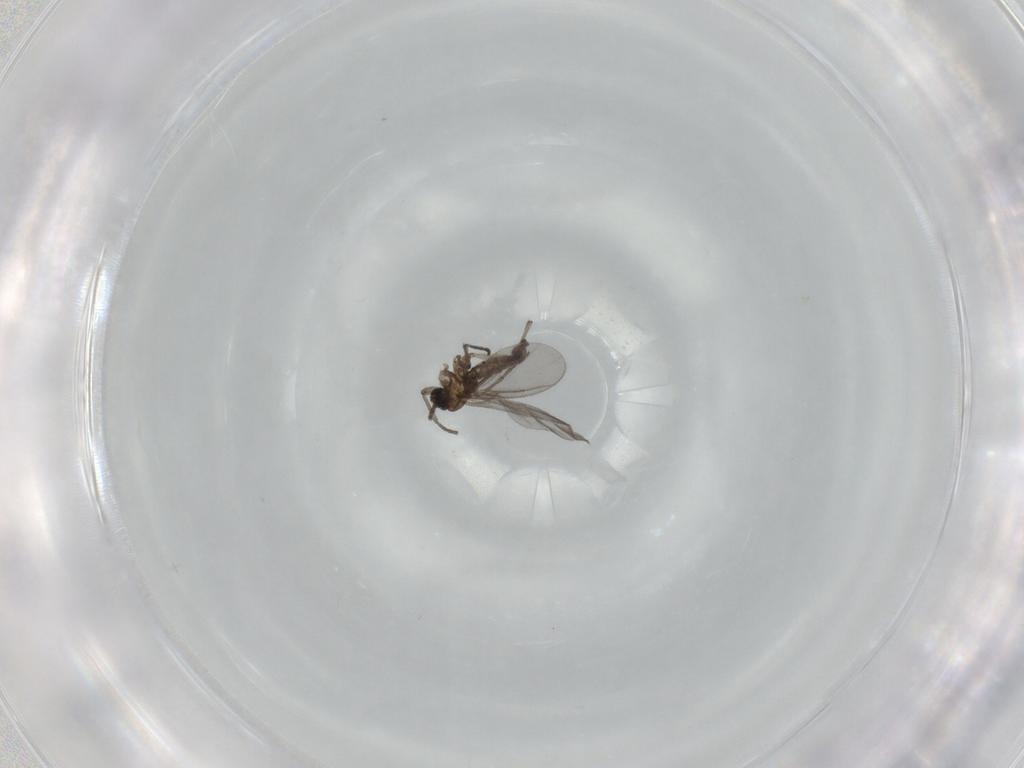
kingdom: Animalia
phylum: Arthropoda
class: Insecta
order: Diptera
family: Sciaridae
